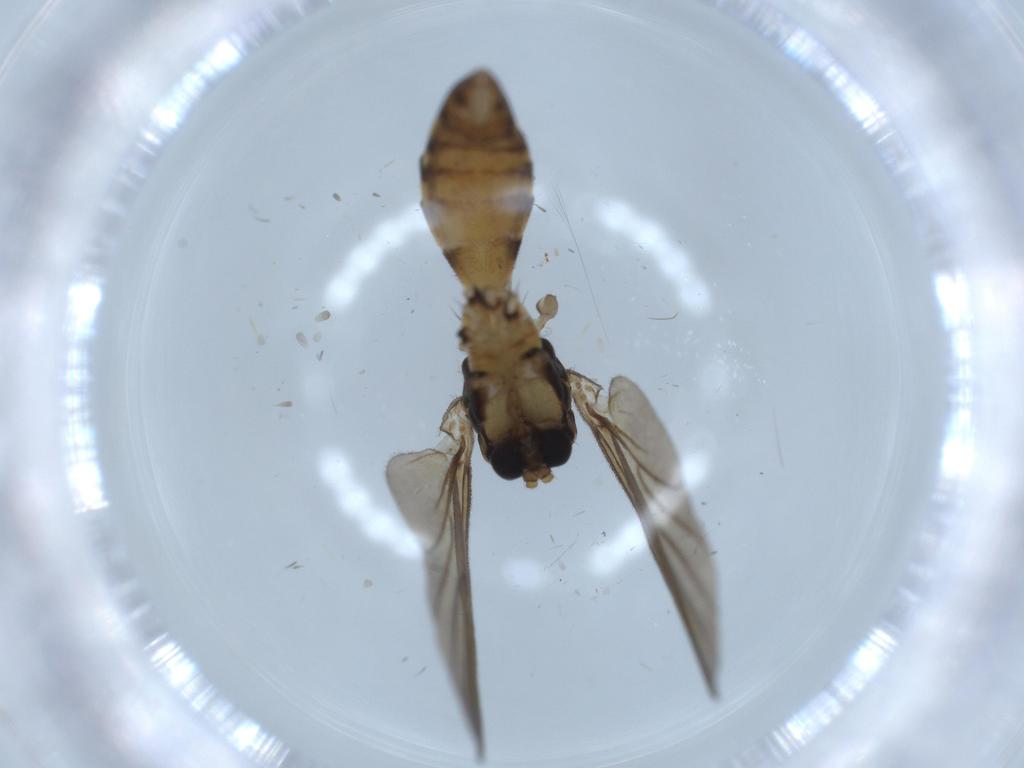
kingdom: Animalia
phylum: Arthropoda
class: Insecta
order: Diptera
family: Mycetophilidae
